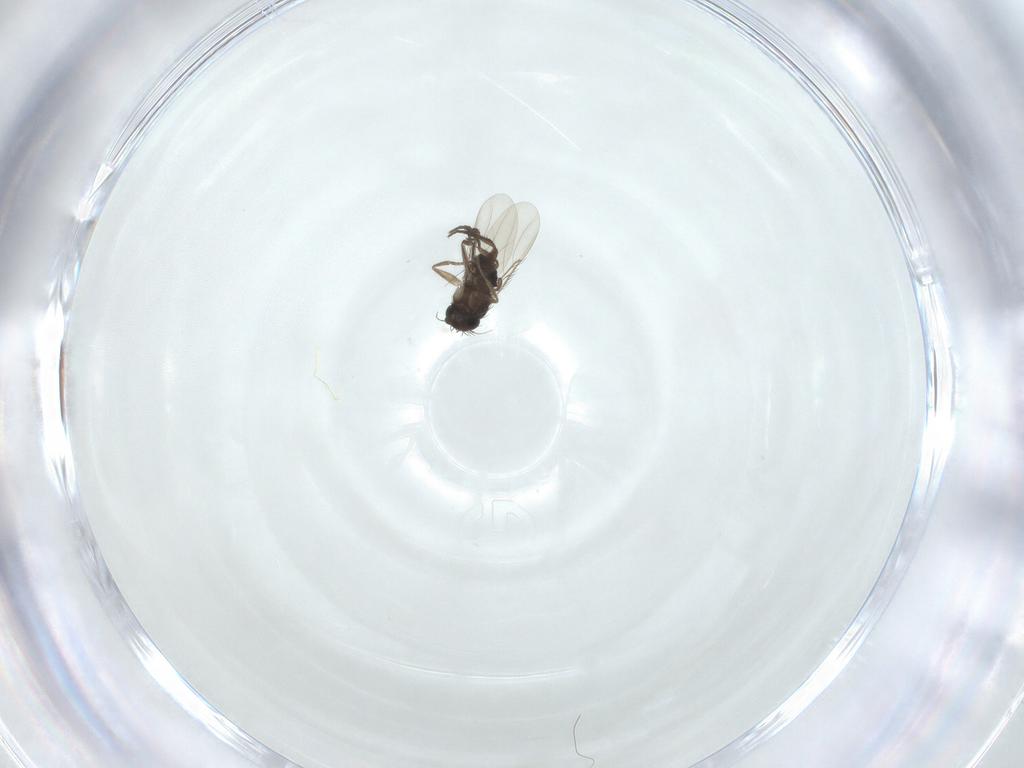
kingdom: Animalia
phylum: Arthropoda
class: Insecta
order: Diptera
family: Phoridae
